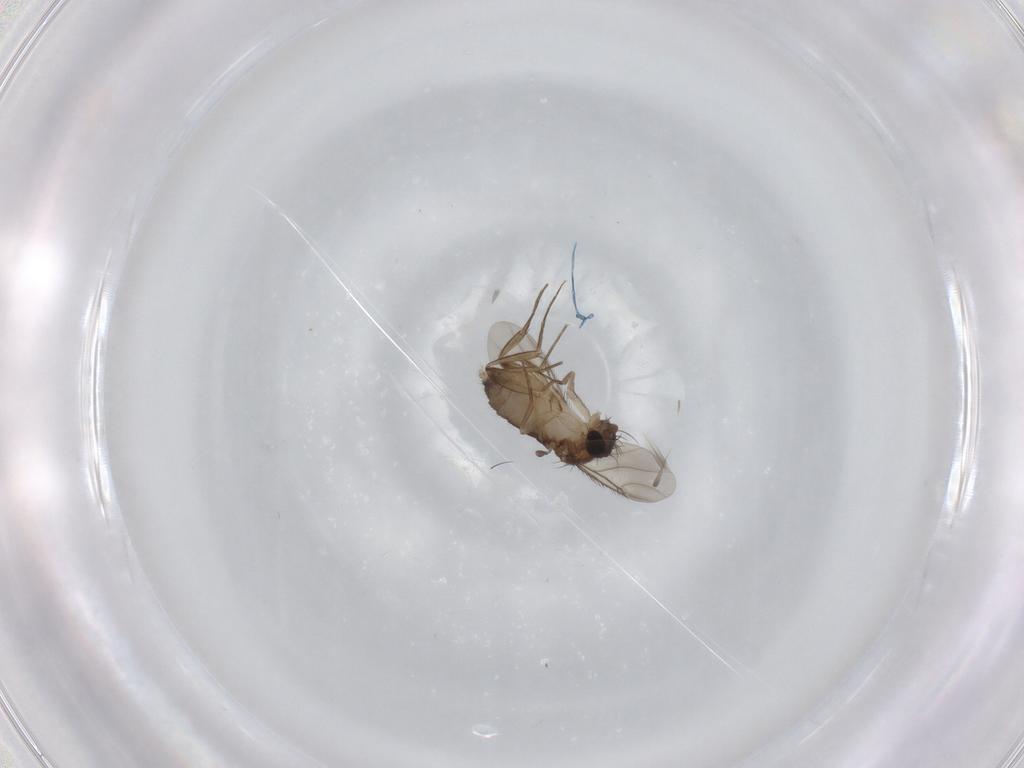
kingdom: Animalia
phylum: Arthropoda
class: Insecta
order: Diptera
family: Phoridae
